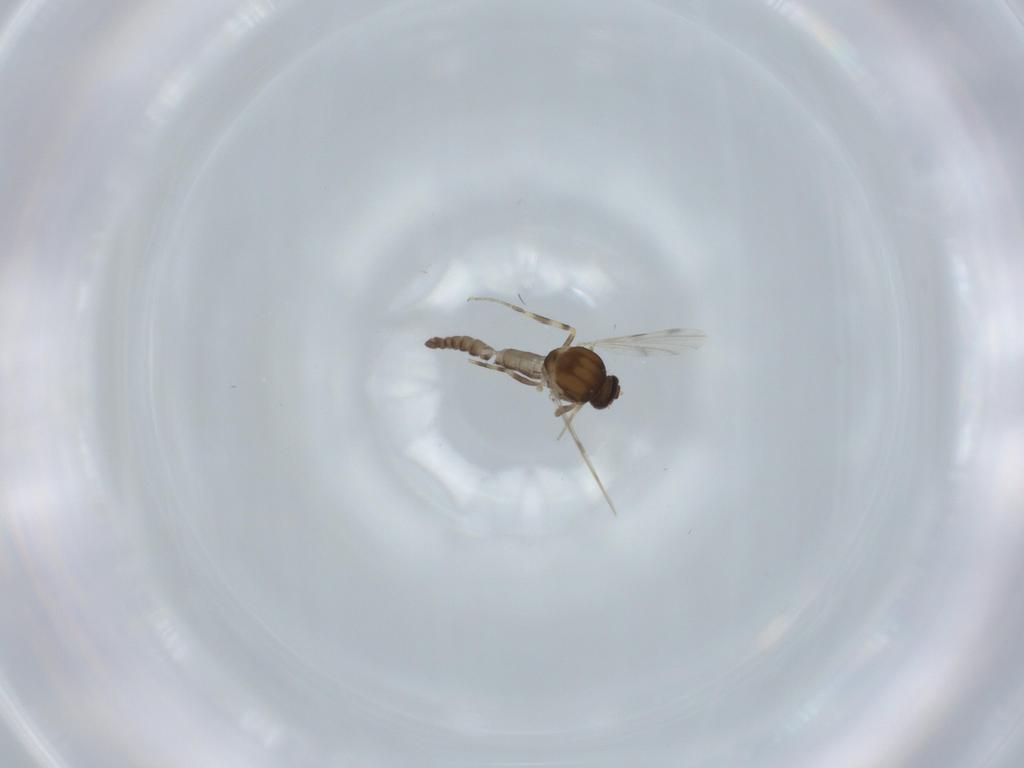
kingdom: Animalia
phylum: Arthropoda
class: Insecta
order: Diptera
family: Ceratopogonidae
